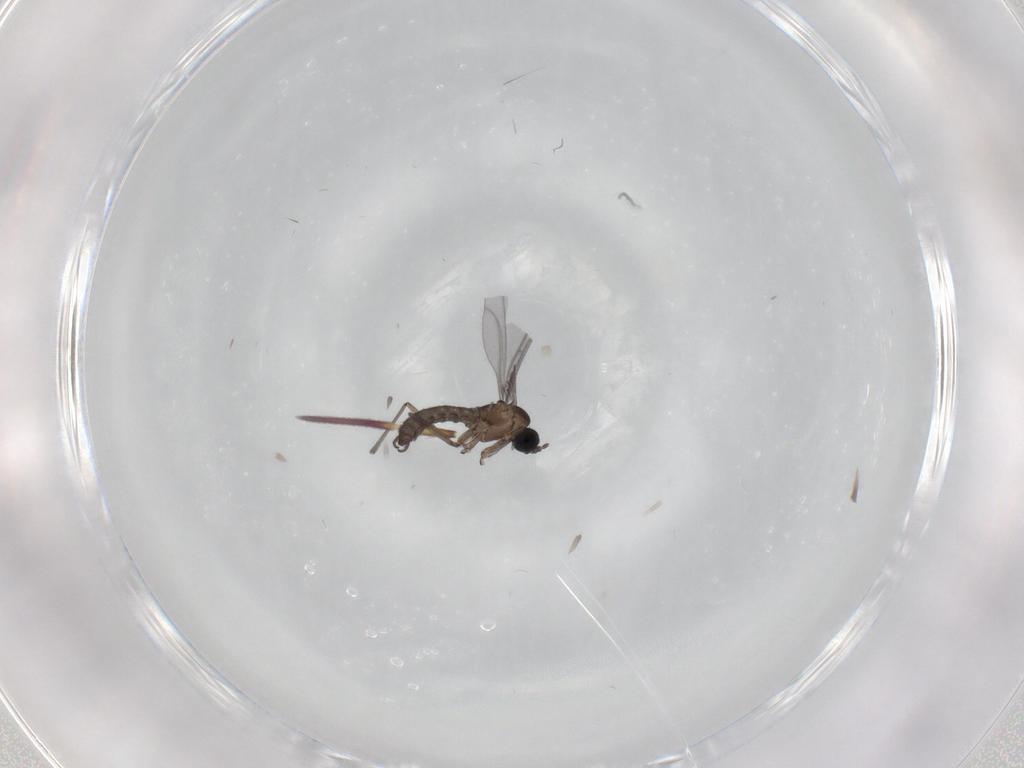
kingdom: Animalia
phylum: Arthropoda
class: Insecta
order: Diptera
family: Sciaridae
